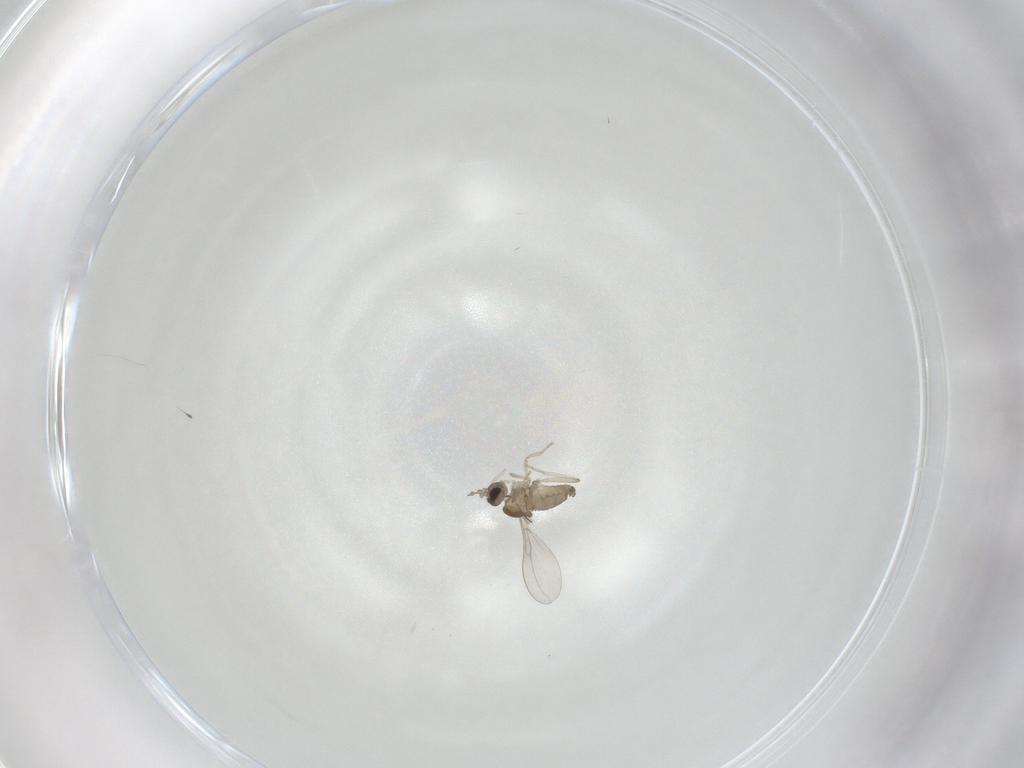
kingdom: Animalia
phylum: Arthropoda
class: Insecta
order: Diptera
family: Cecidomyiidae
